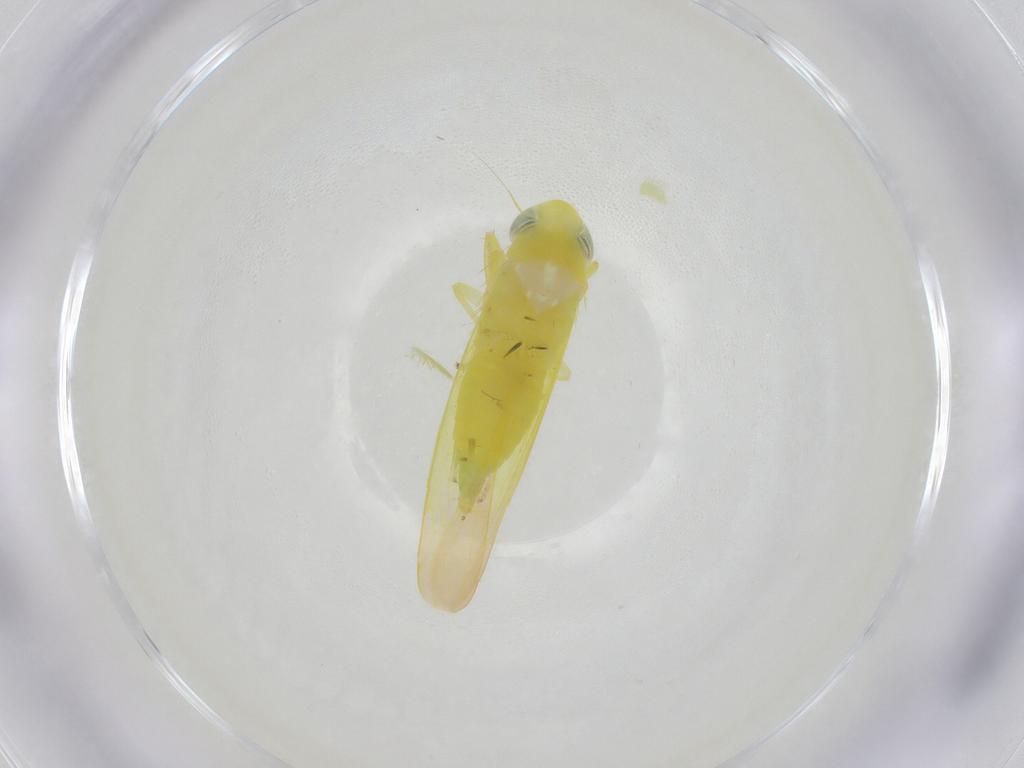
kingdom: Animalia
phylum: Arthropoda
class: Insecta
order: Hemiptera
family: Cicadellidae
